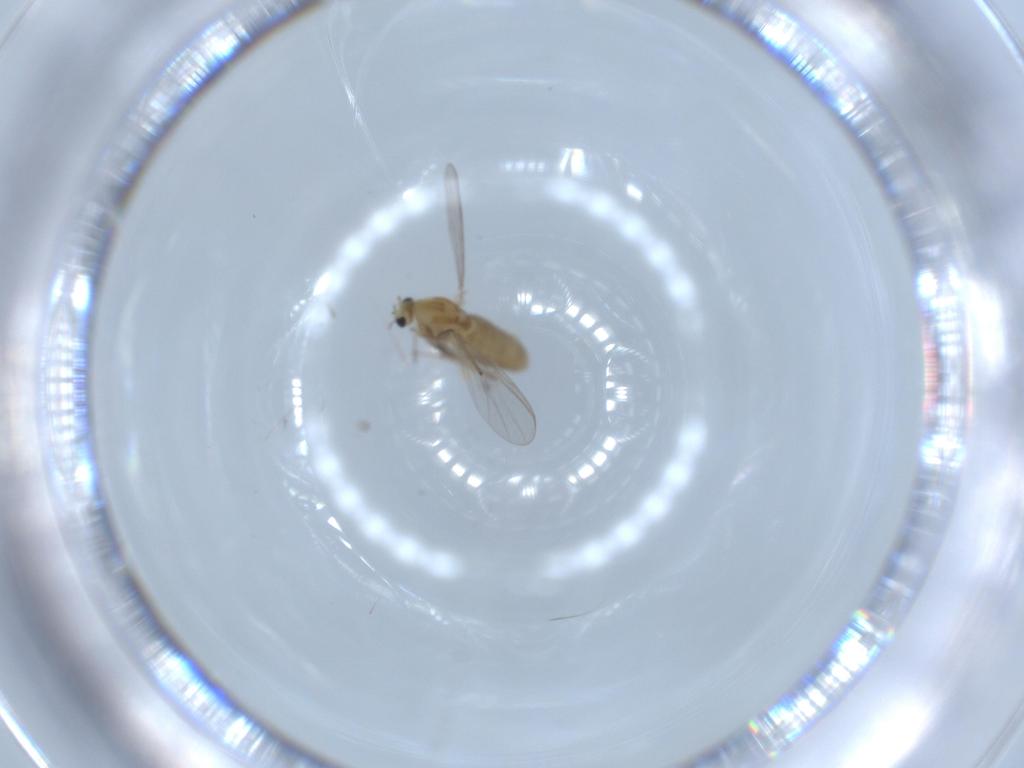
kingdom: Animalia
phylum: Arthropoda
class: Insecta
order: Diptera
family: Chironomidae
